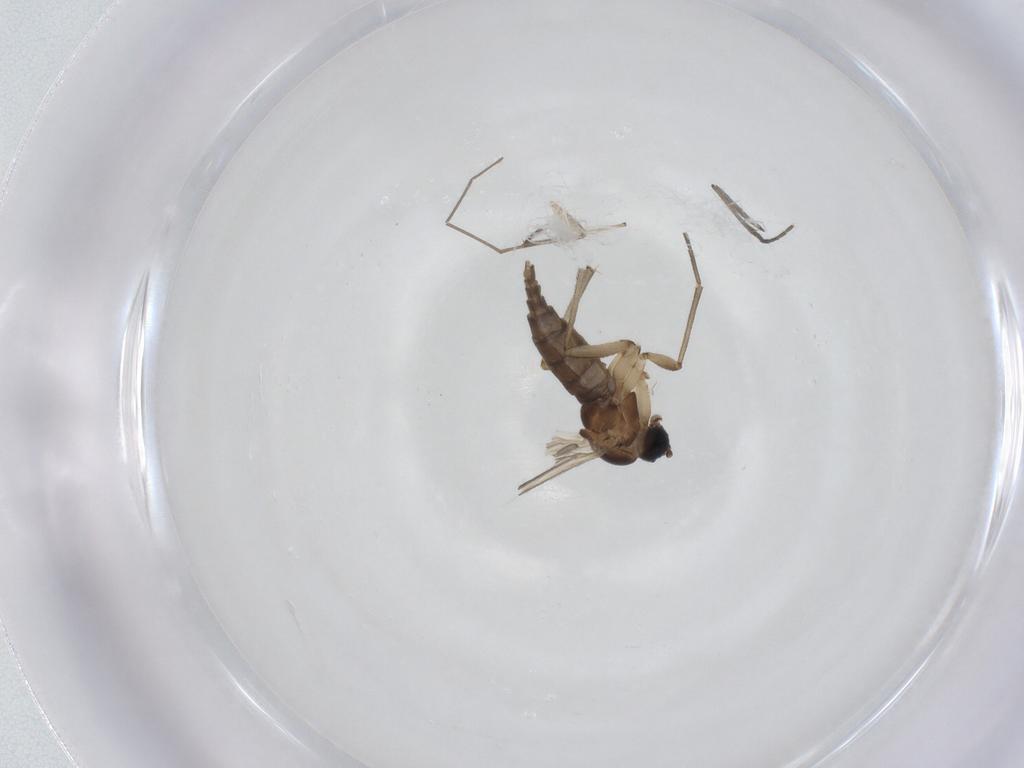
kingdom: Animalia
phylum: Arthropoda
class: Insecta
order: Diptera
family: Sciaridae
